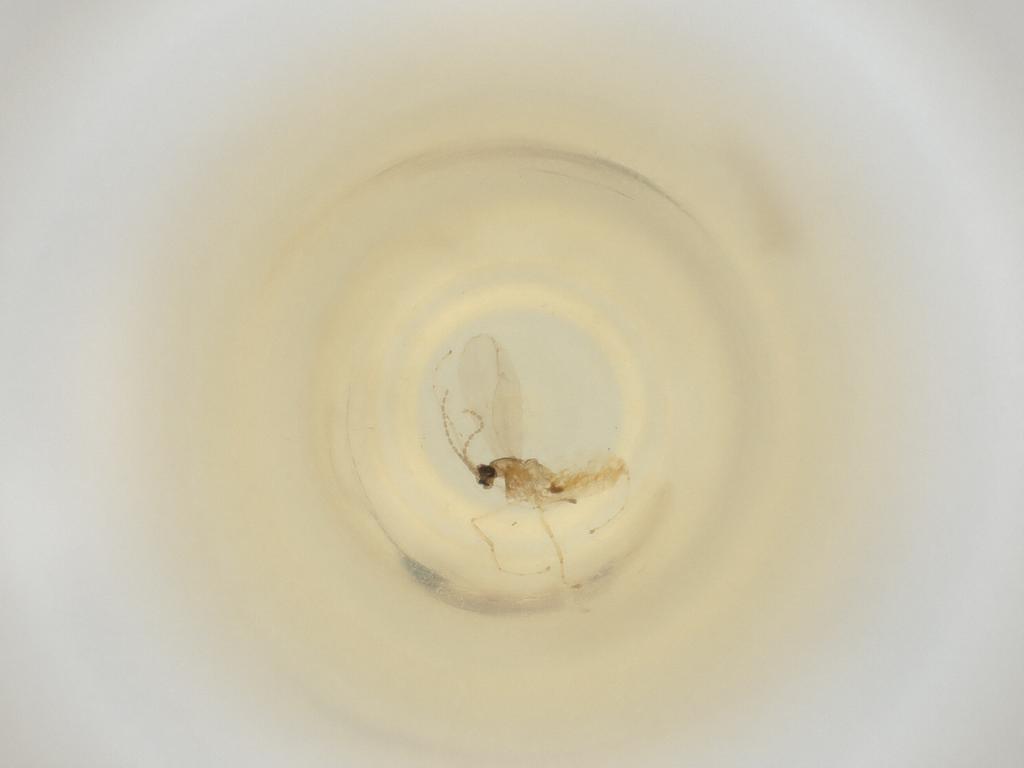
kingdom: Animalia
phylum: Arthropoda
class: Insecta
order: Diptera
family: Cecidomyiidae
